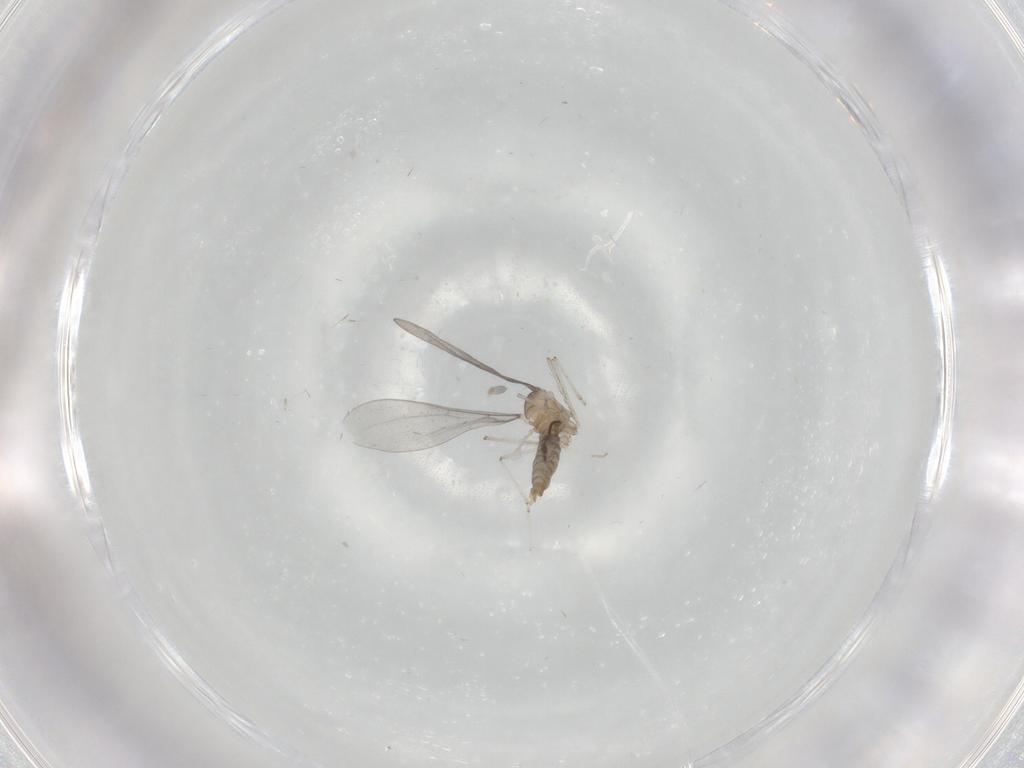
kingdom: Animalia
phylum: Arthropoda
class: Insecta
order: Diptera
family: Cecidomyiidae
